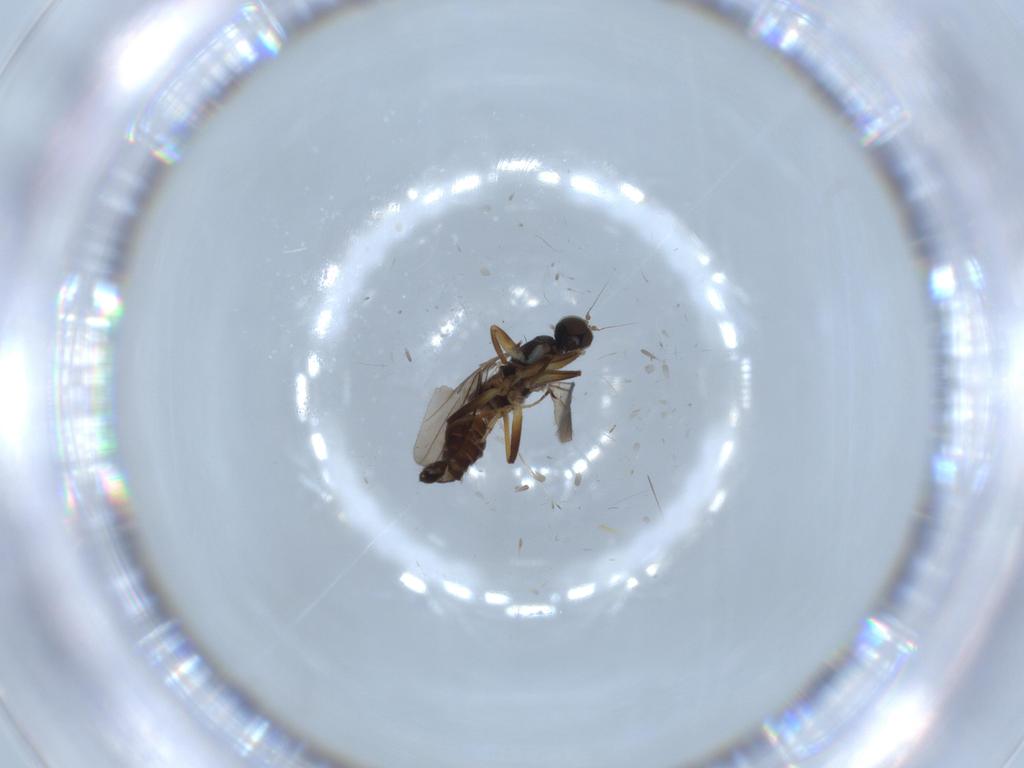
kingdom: Animalia
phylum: Arthropoda
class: Insecta
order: Diptera
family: Hybotidae
